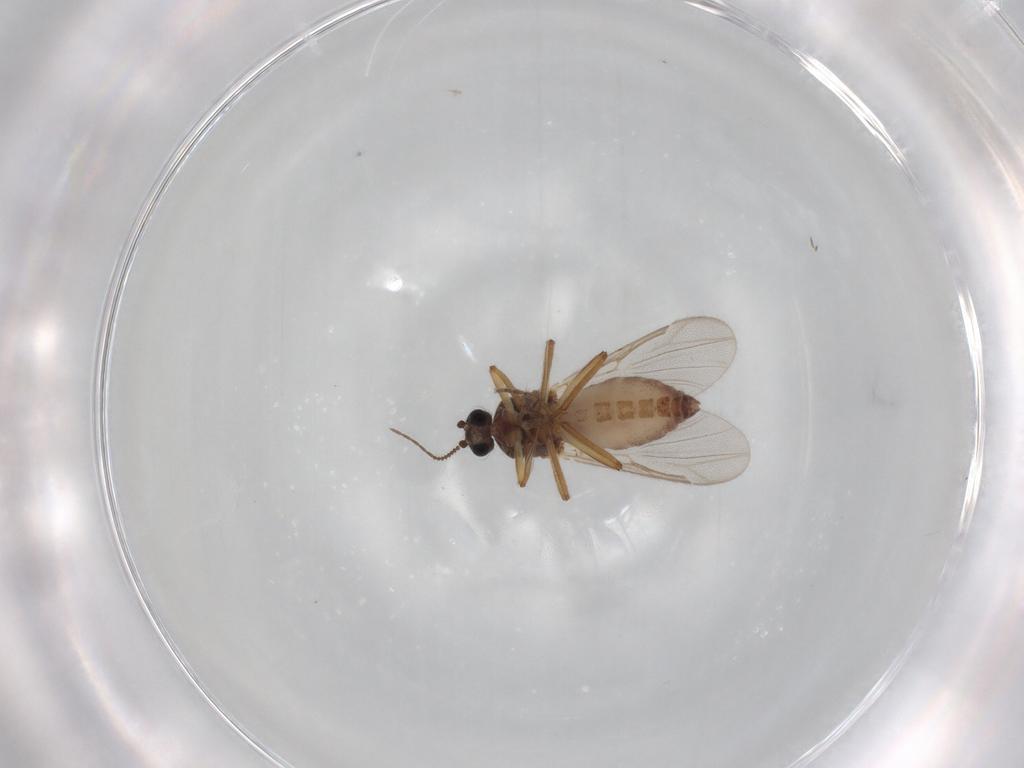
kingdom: Animalia
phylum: Arthropoda
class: Insecta
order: Diptera
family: Ceratopogonidae
